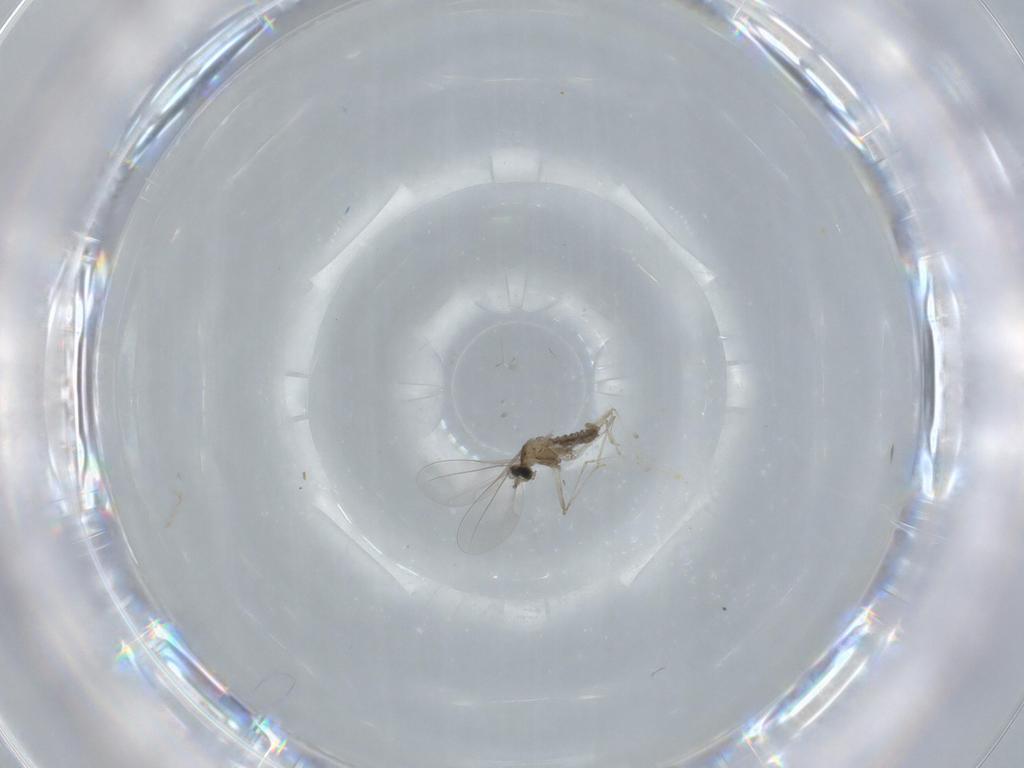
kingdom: Animalia
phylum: Arthropoda
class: Insecta
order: Diptera
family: Cecidomyiidae
